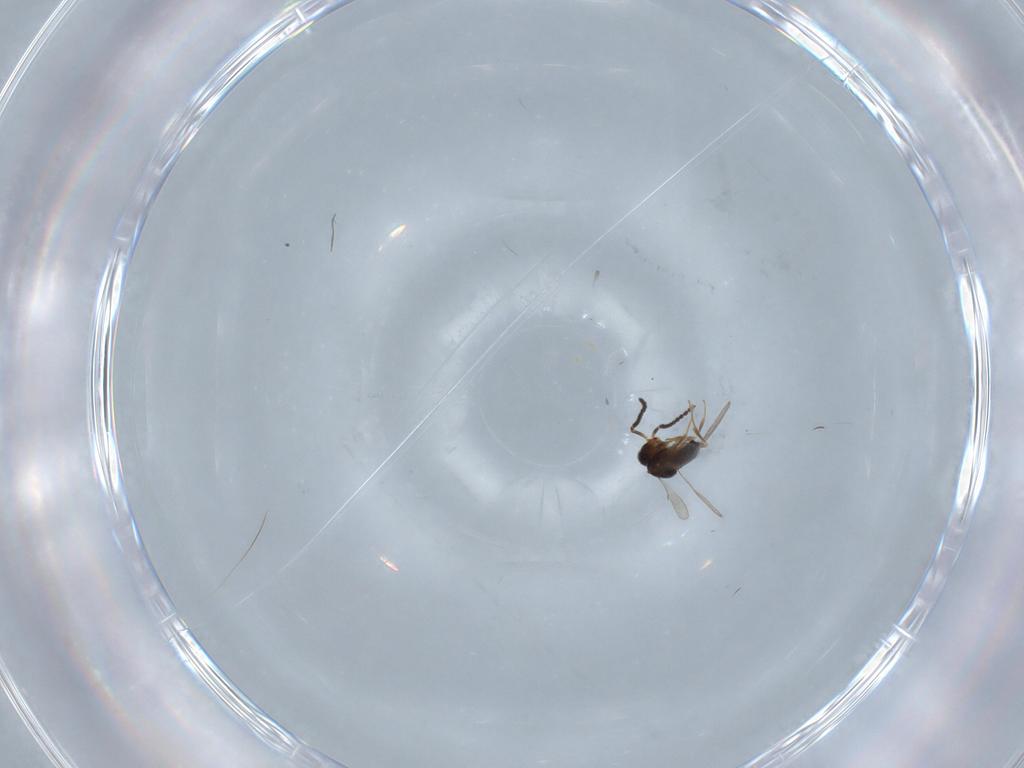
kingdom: Animalia
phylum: Arthropoda
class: Insecta
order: Hymenoptera
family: Scelionidae
